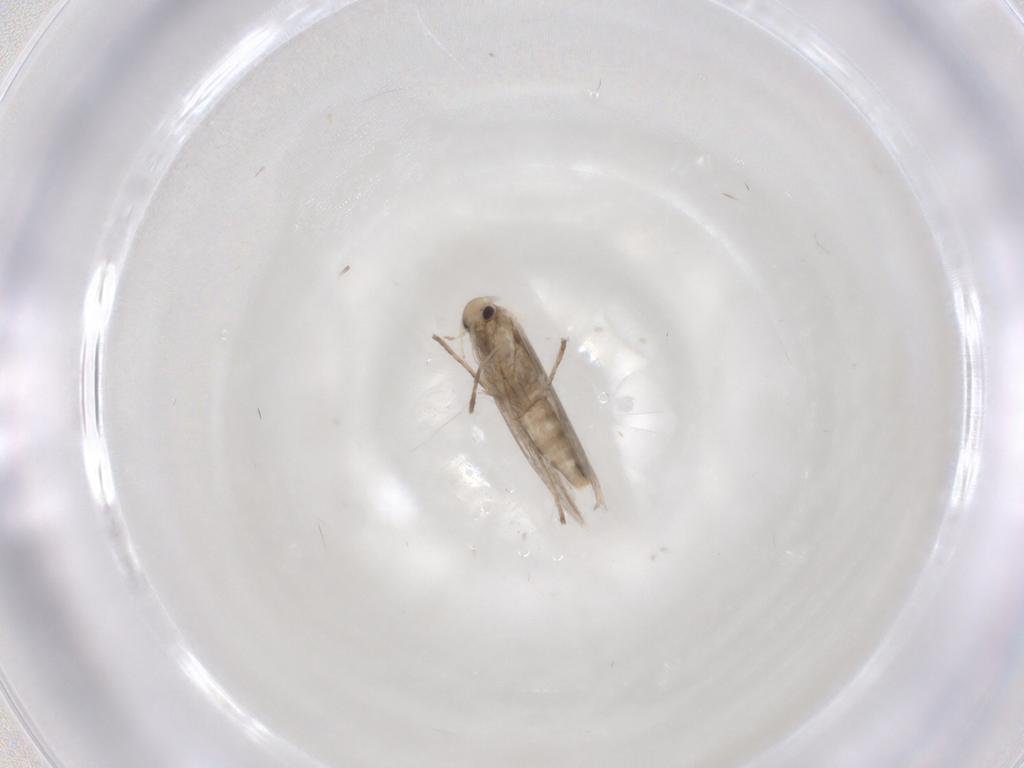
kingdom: Animalia
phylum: Arthropoda
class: Insecta
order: Lepidoptera
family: Gracillariidae
